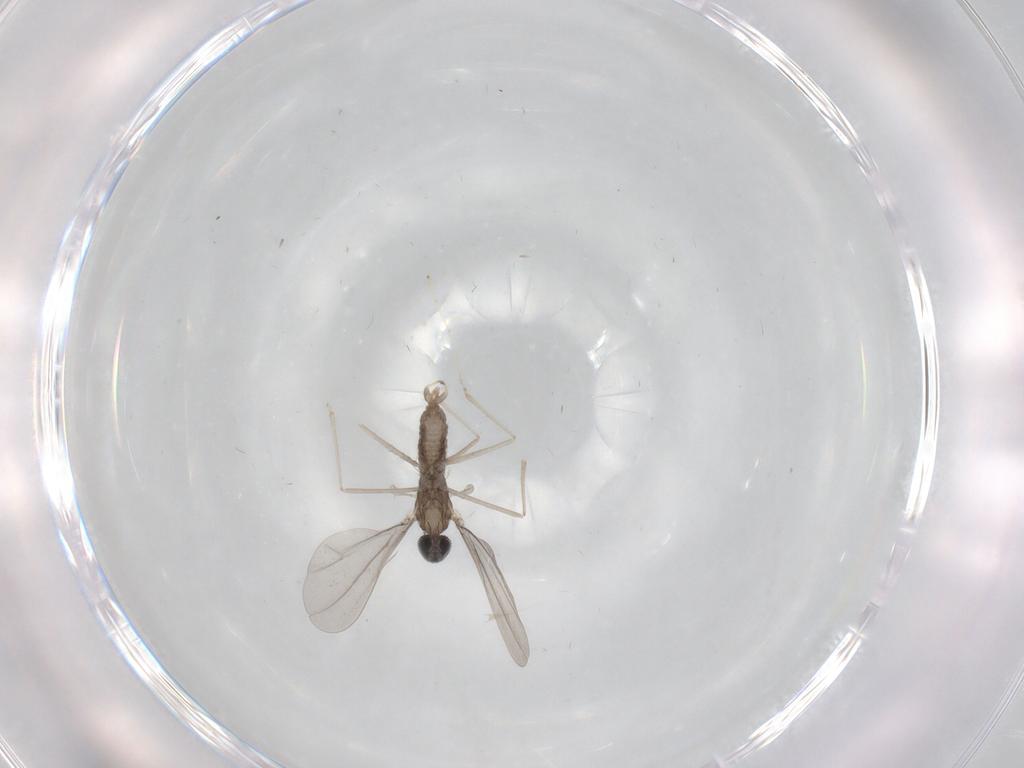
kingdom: Animalia
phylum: Arthropoda
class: Insecta
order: Diptera
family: Cecidomyiidae
